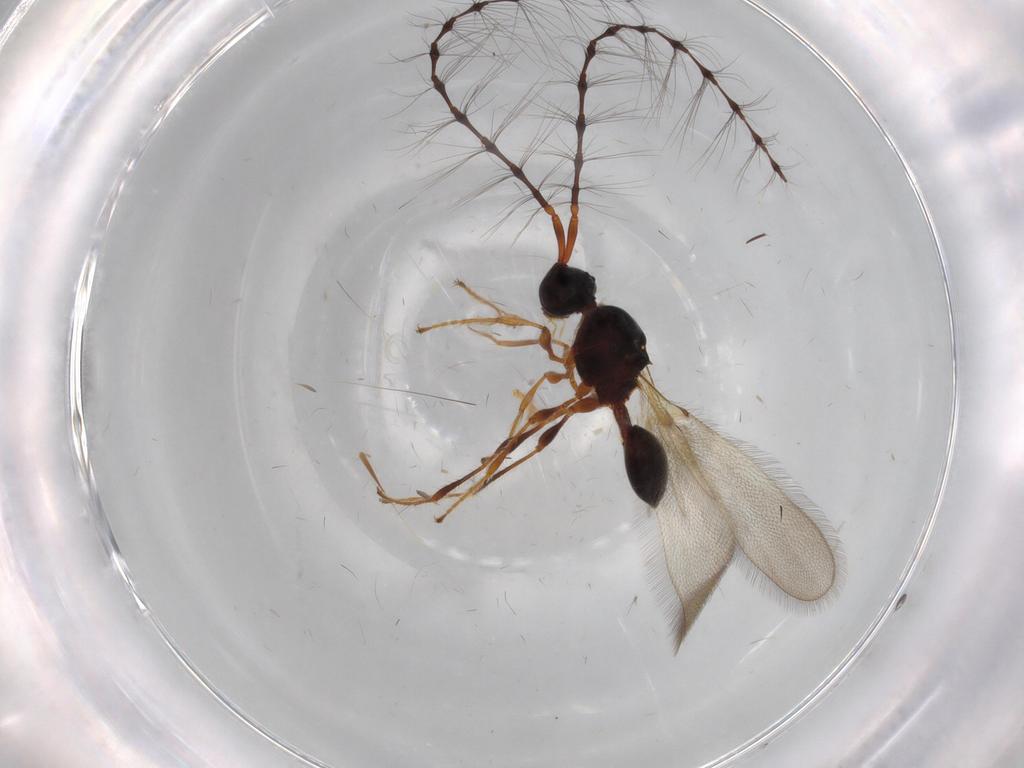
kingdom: Animalia
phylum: Arthropoda
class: Insecta
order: Hymenoptera
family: Diapriidae
